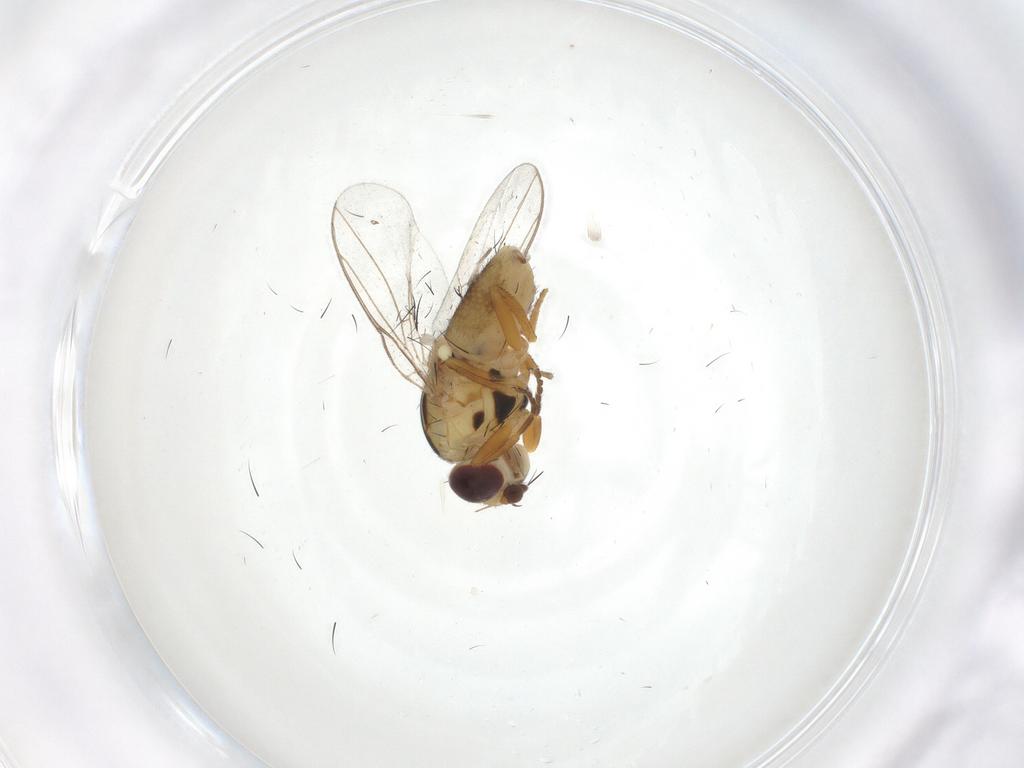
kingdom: Animalia
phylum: Arthropoda
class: Insecta
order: Diptera
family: Chloropidae
